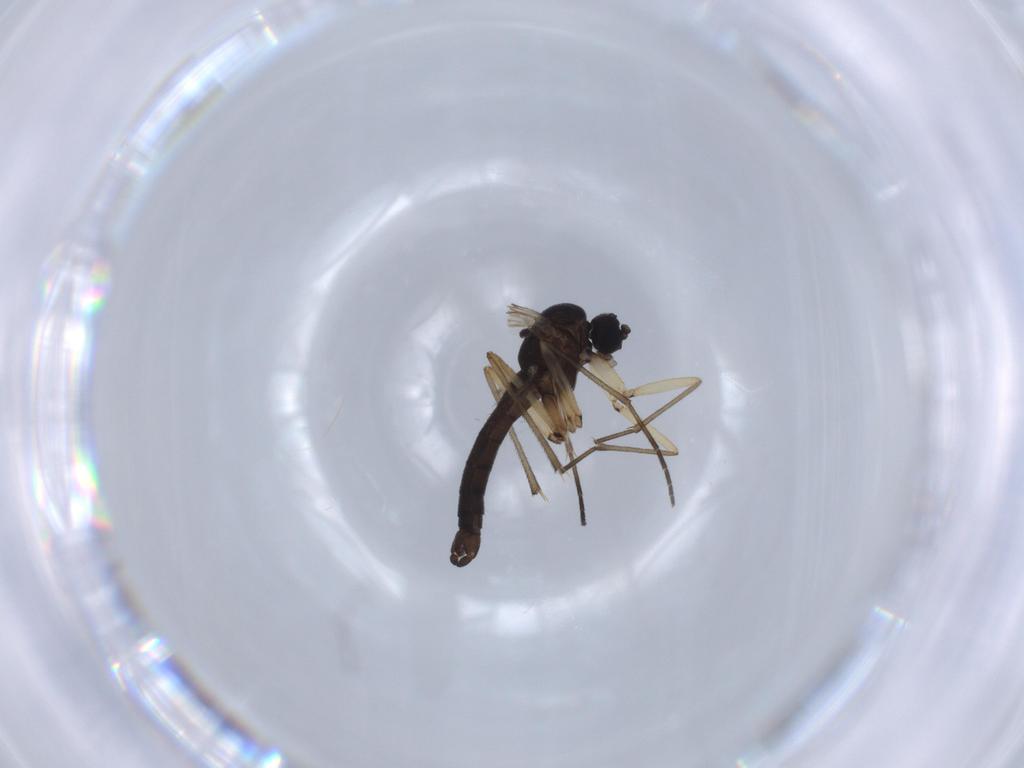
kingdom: Animalia
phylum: Arthropoda
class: Insecta
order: Diptera
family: Sciaridae
